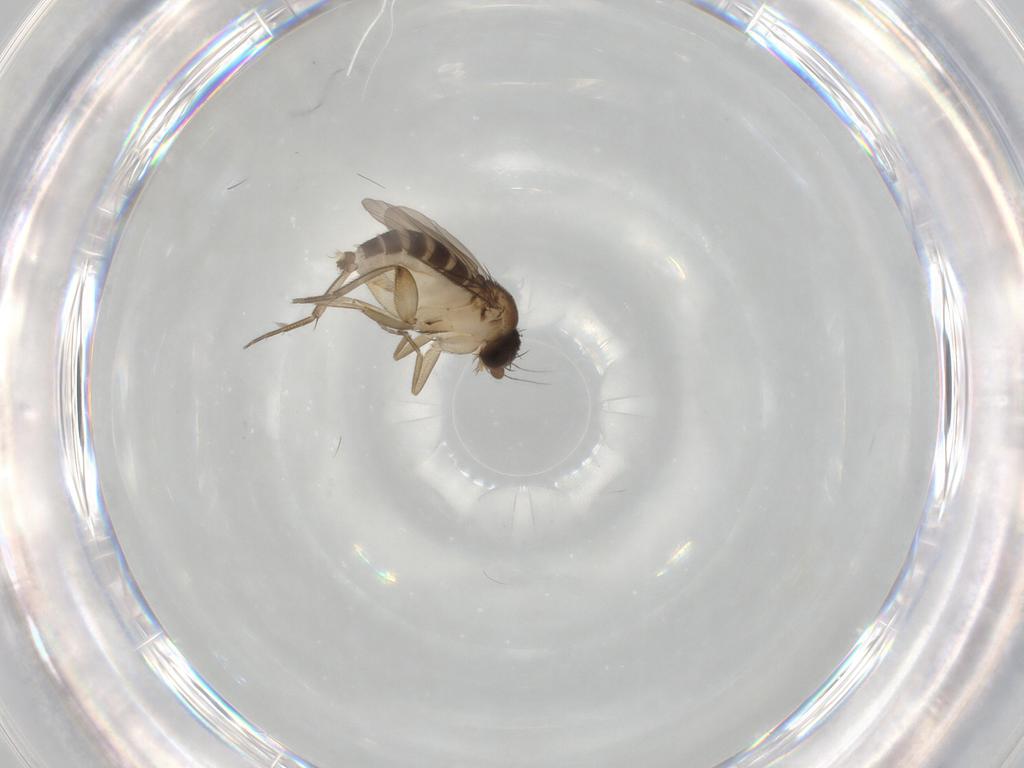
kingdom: Animalia
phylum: Arthropoda
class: Insecta
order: Diptera
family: Phoridae
